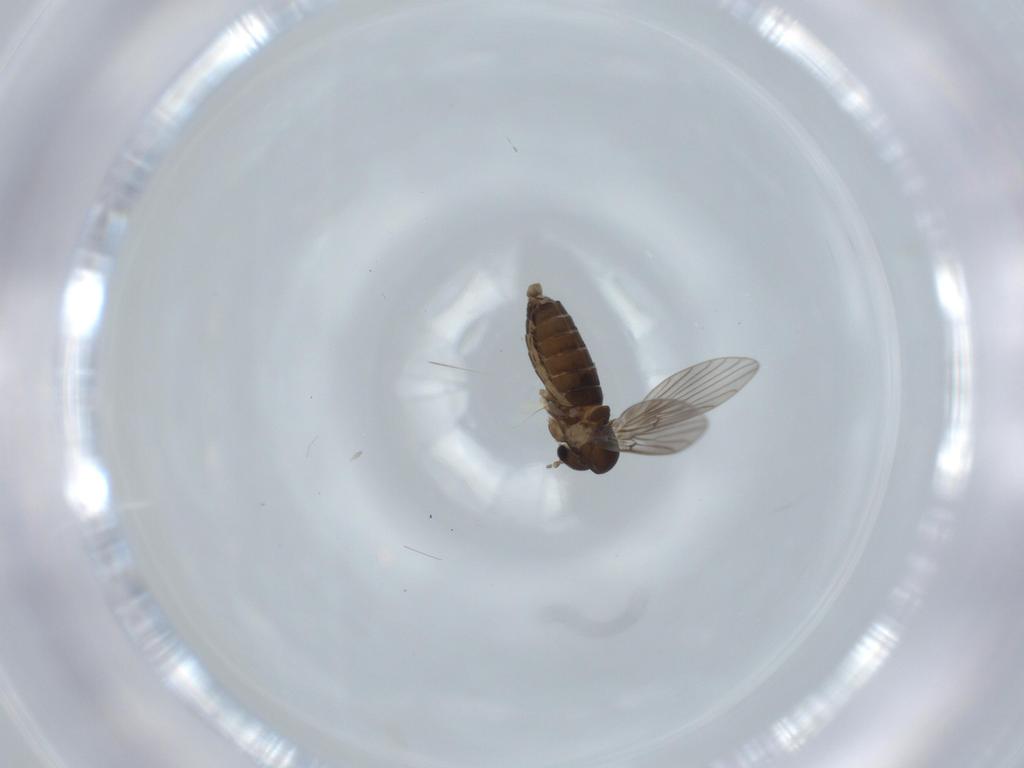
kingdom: Animalia
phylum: Arthropoda
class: Insecta
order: Diptera
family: Cecidomyiidae
